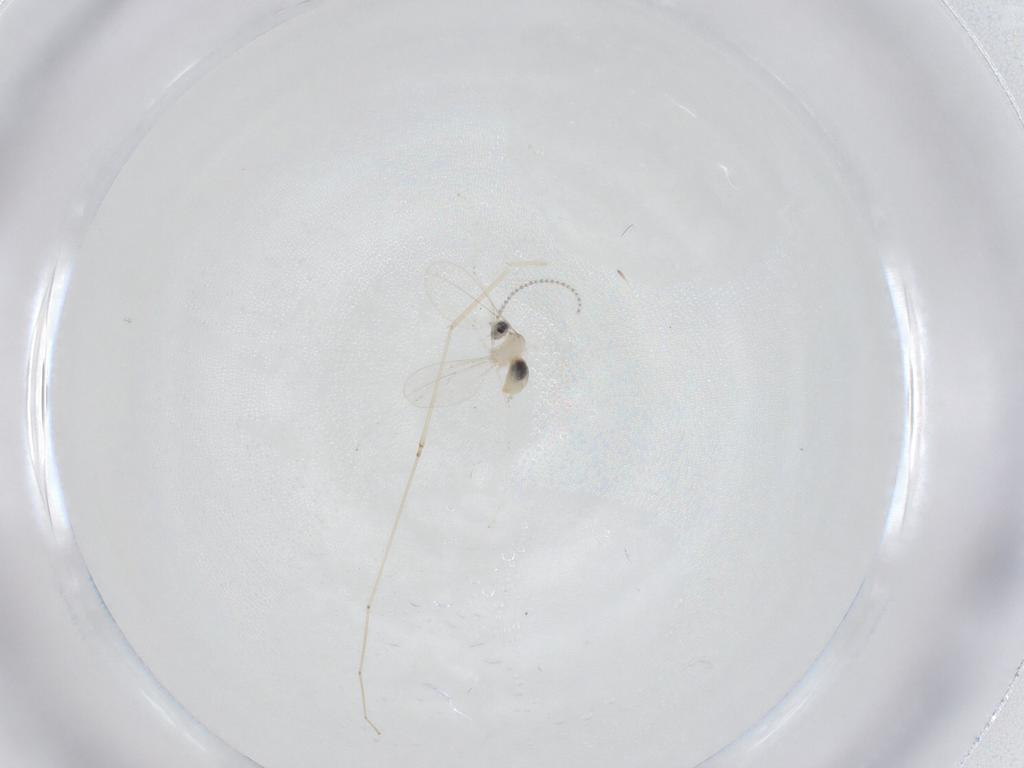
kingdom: Animalia
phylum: Arthropoda
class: Insecta
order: Diptera
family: Cecidomyiidae
